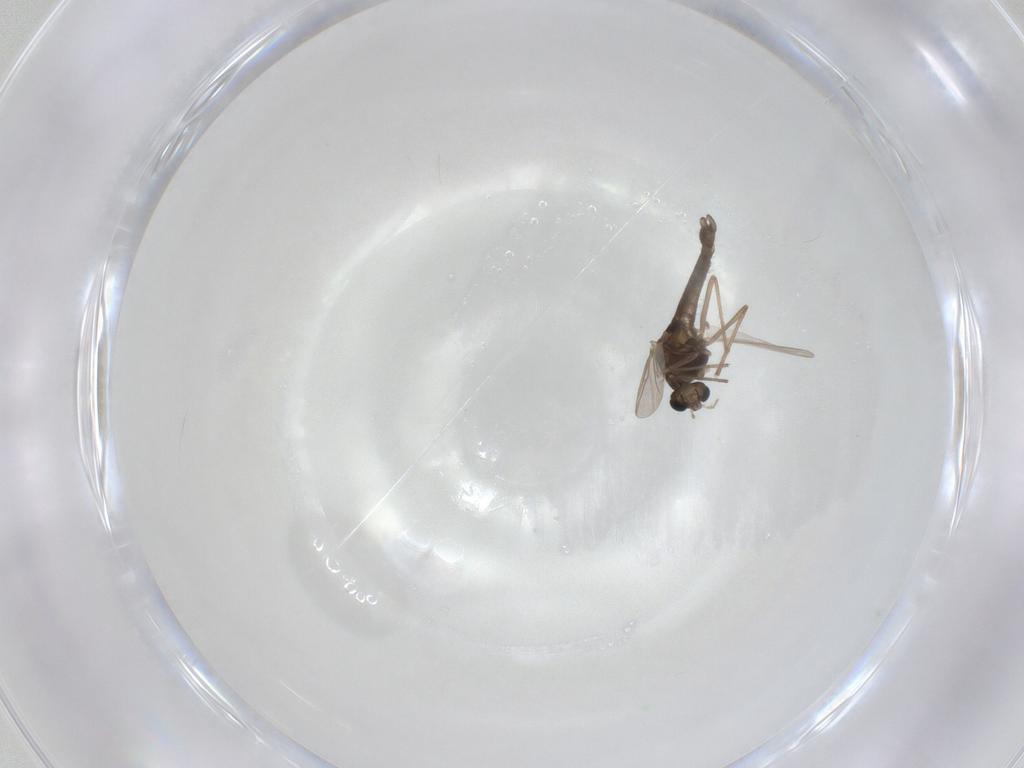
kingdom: Animalia
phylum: Arthropoda
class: Insecta
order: Diptera
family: Chironomidae
